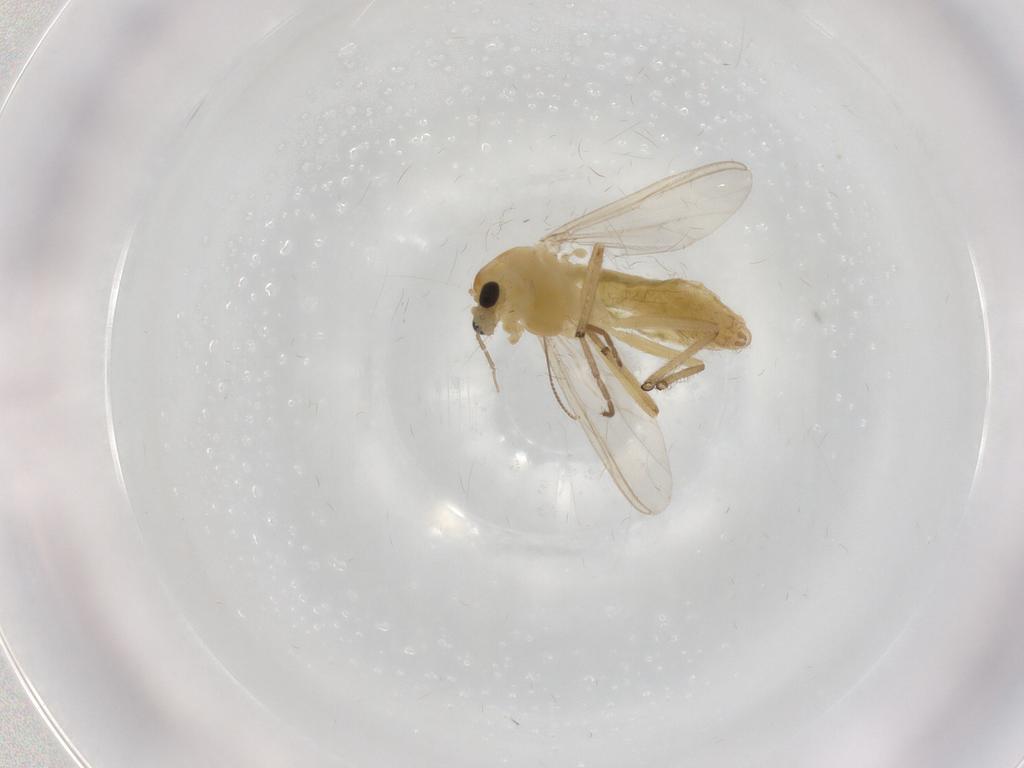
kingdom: Animalia
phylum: Arthropoda
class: Insecta
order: Diptera
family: Chironomidae
